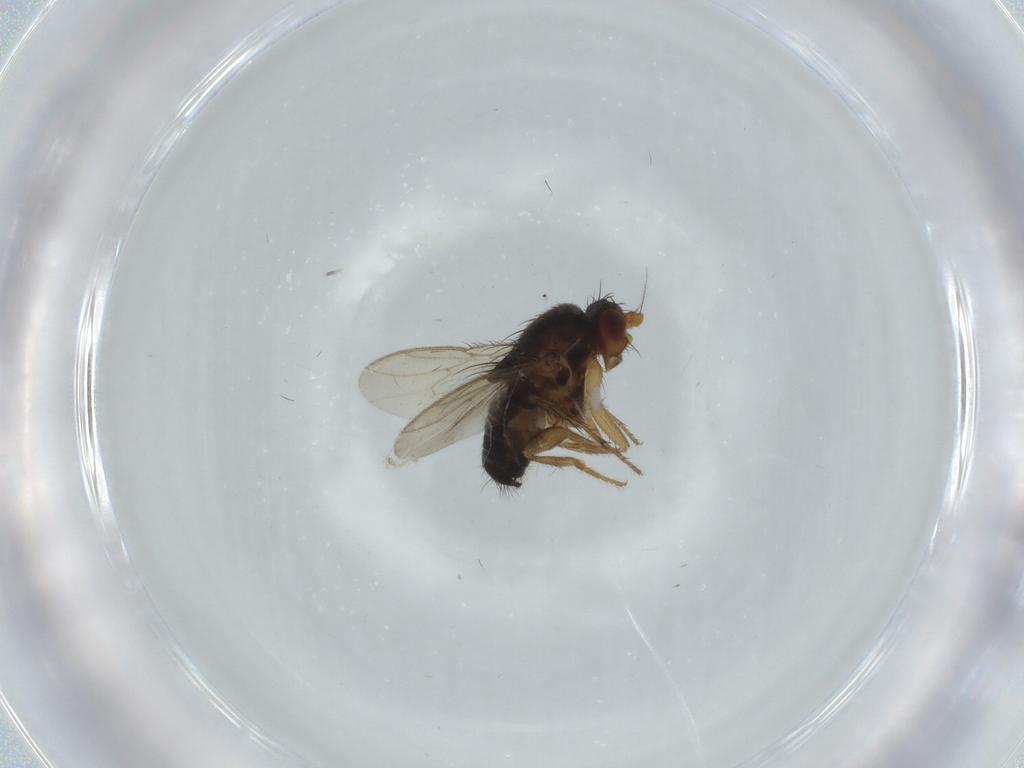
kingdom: Animalia
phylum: Arthropoda
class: Insecta
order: Diptera
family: Sphaeroceridae
